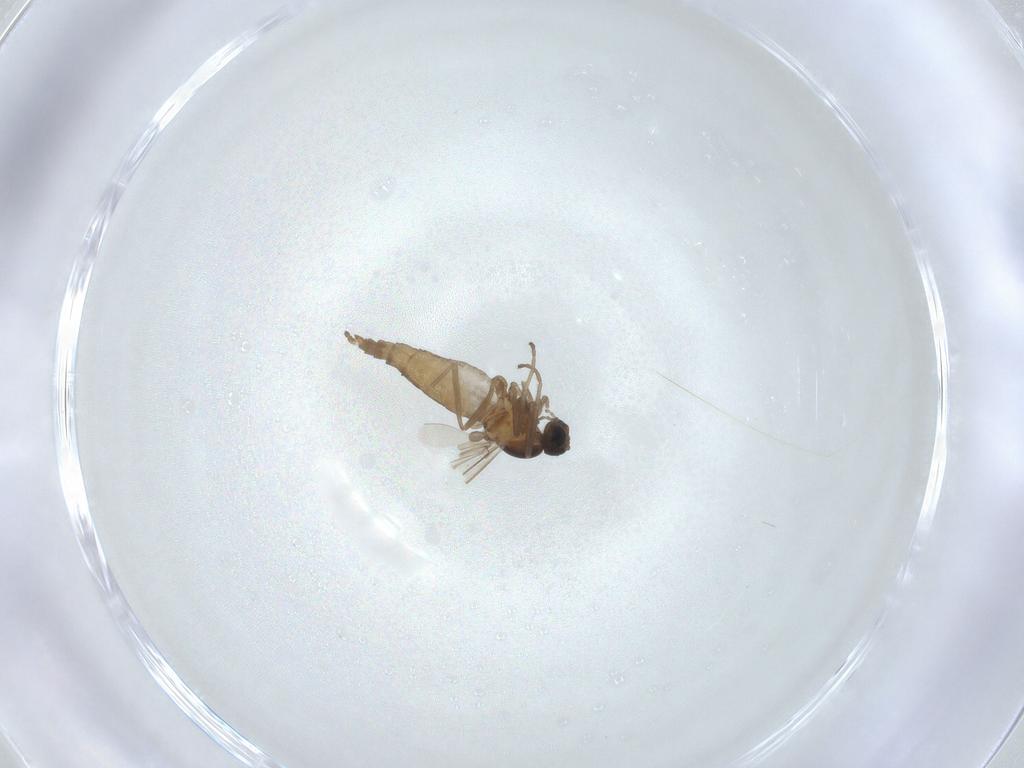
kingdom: Animalia
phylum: Arthropoda
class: Insecta
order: Diptera
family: Cecidomyiidae
